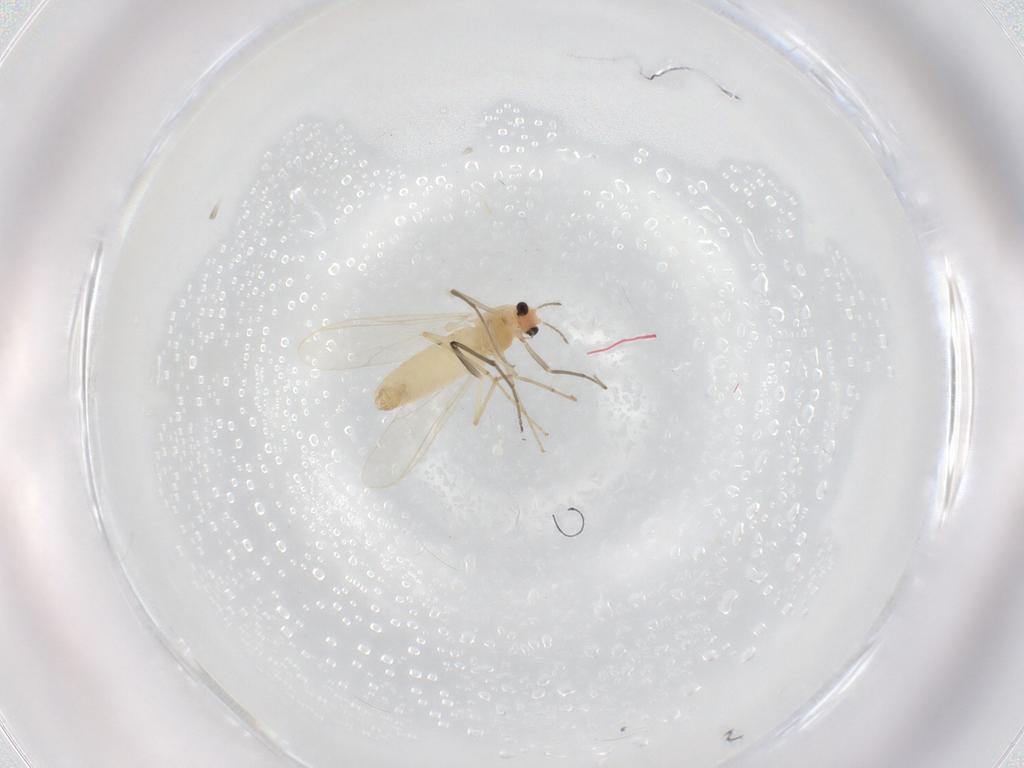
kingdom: Animalia
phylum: Arthropoda
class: Insecta
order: Diptera
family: Chironomidae
